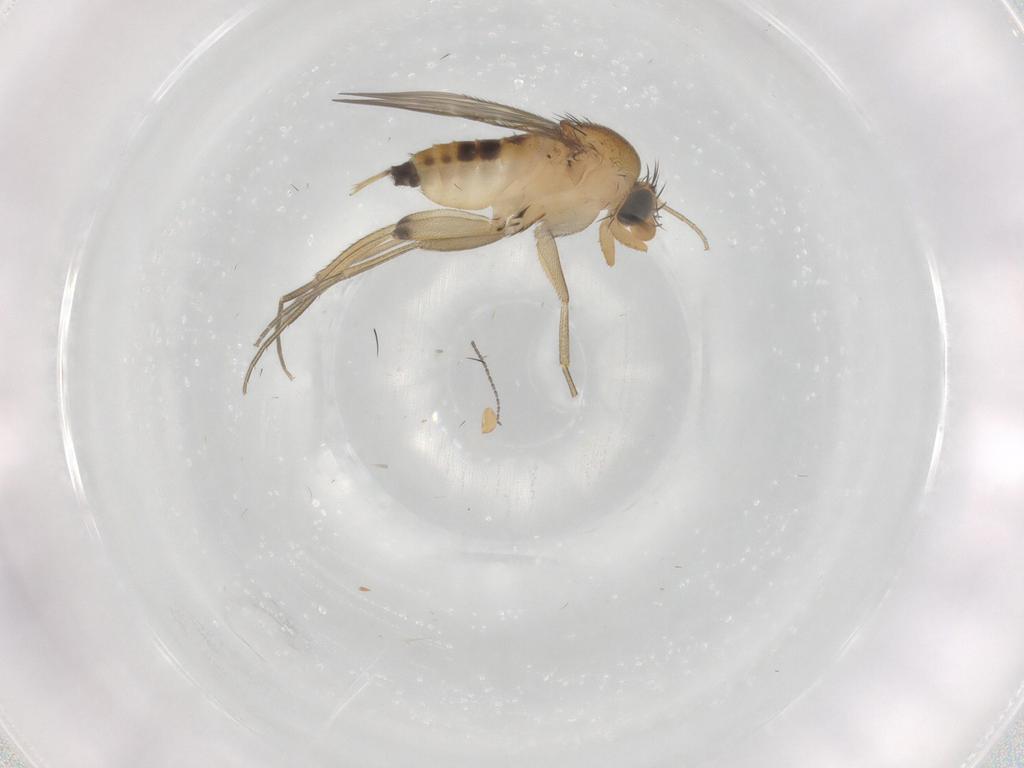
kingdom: Animalia
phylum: Arthropoda
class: Insecta
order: Diptera
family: Phoridae
